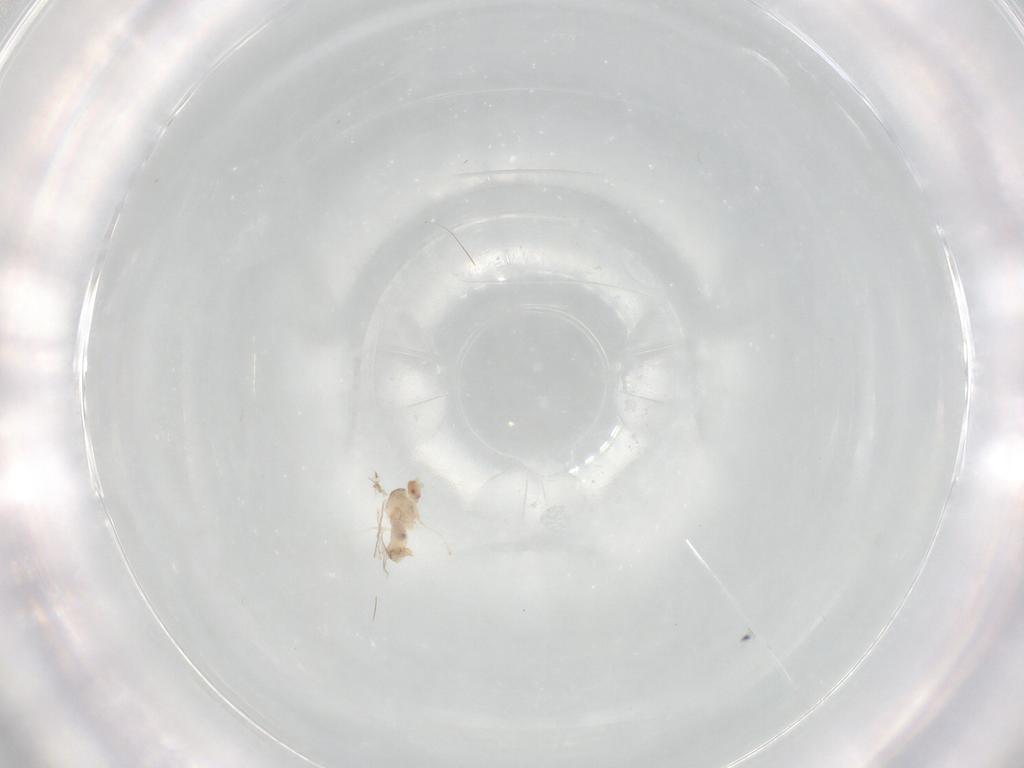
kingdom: Animalia
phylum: Arthropoda
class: Insecta
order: Diptera
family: Cecidomyiidae
